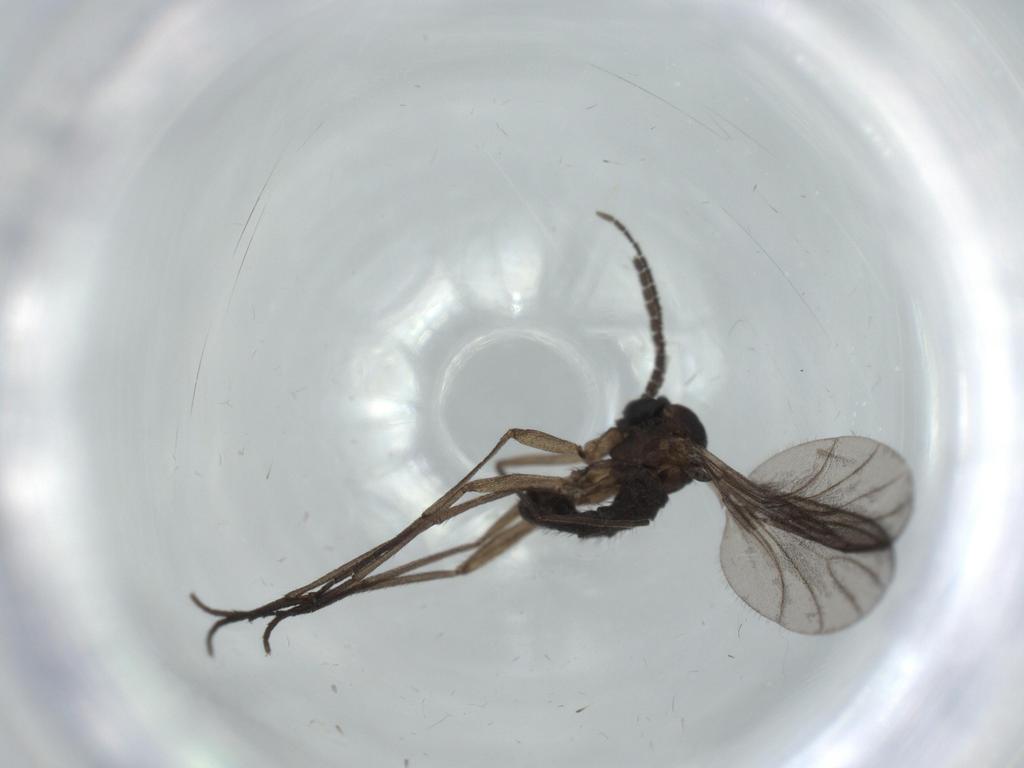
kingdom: Animalia
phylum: Arthropoda
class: Insecta
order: Diptera
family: Sciaridae
